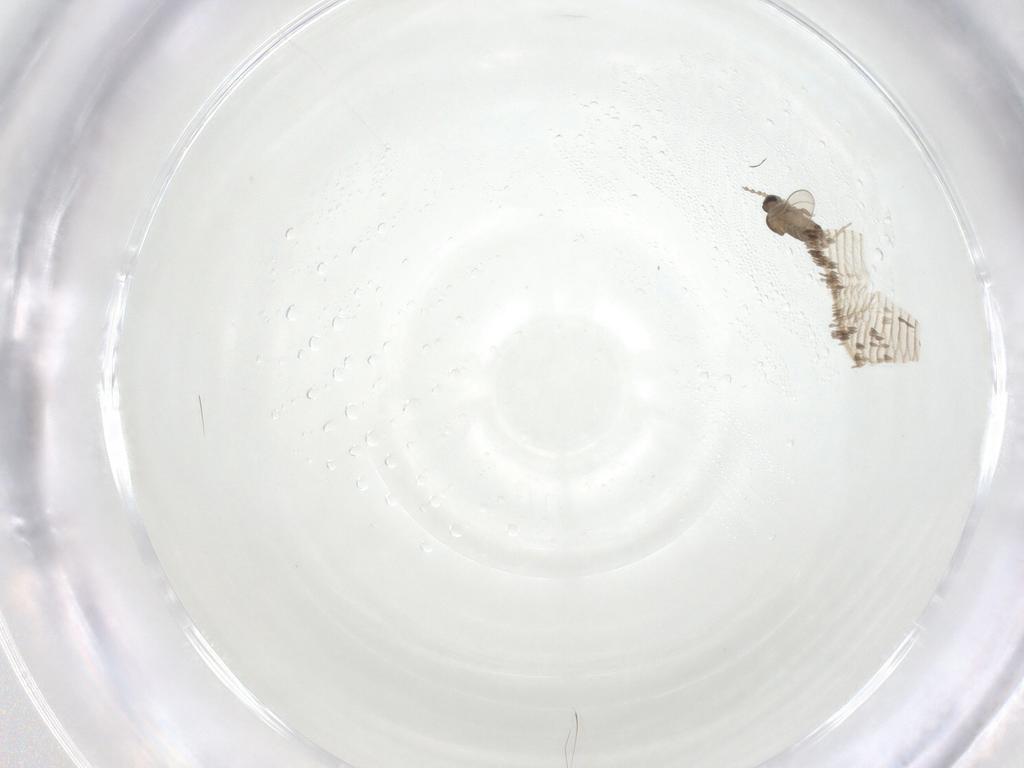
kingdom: Animalia
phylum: Arthropoda
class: Insecta
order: Diptera
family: Cecidomyiidae
